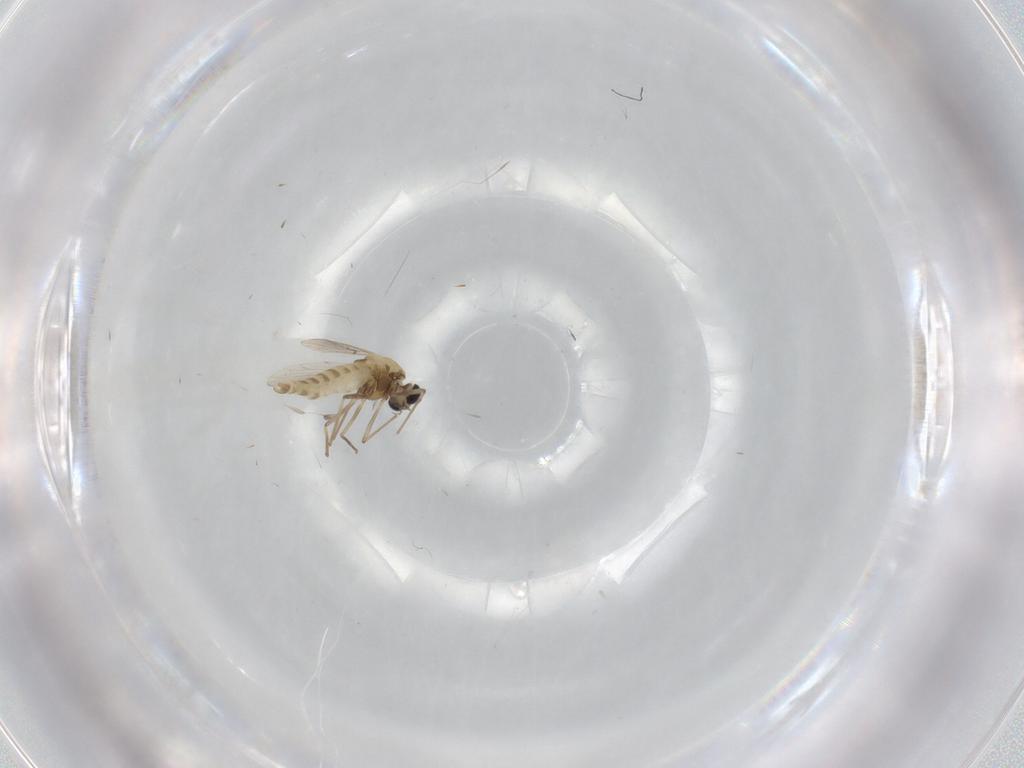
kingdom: Animalia
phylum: Arthropoda
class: Insecta
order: Diptera
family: Chironomidae
